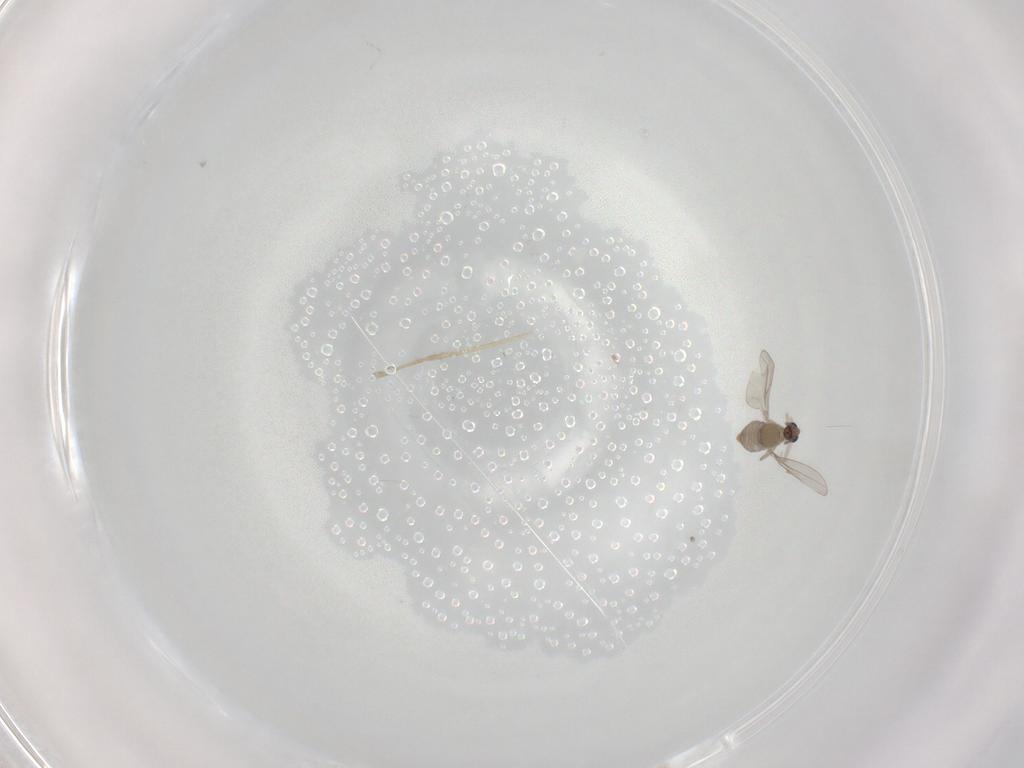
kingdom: Animalia
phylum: Arthropoda
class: Insecta
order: Diptera
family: Cecidomyiidae
